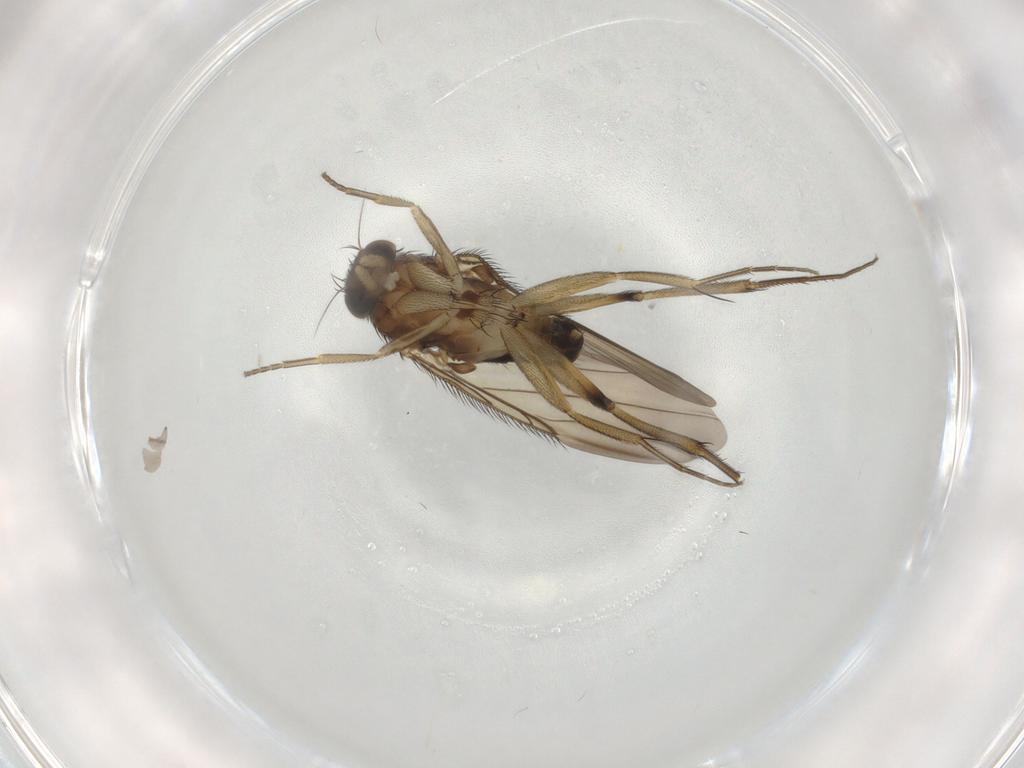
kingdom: Animalia
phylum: Arthropoda
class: Insecta
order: Diptera
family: Phoridae
